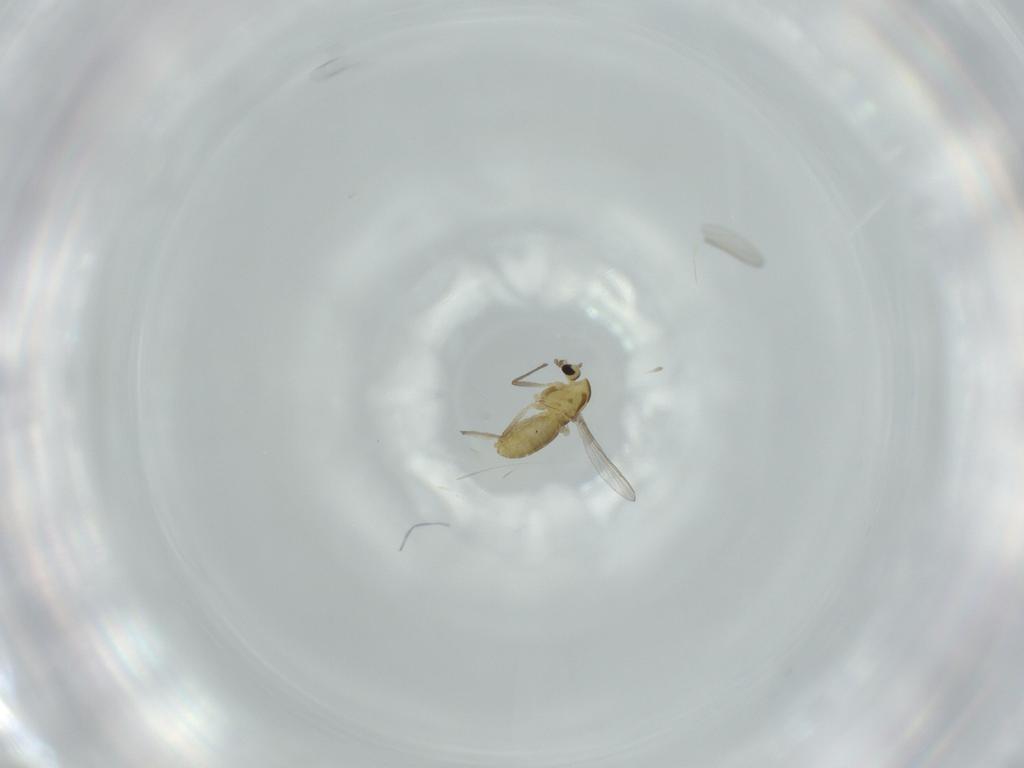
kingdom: Animalia
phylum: Arthropoda
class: Insecta
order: Diptera
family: Chironomidae
